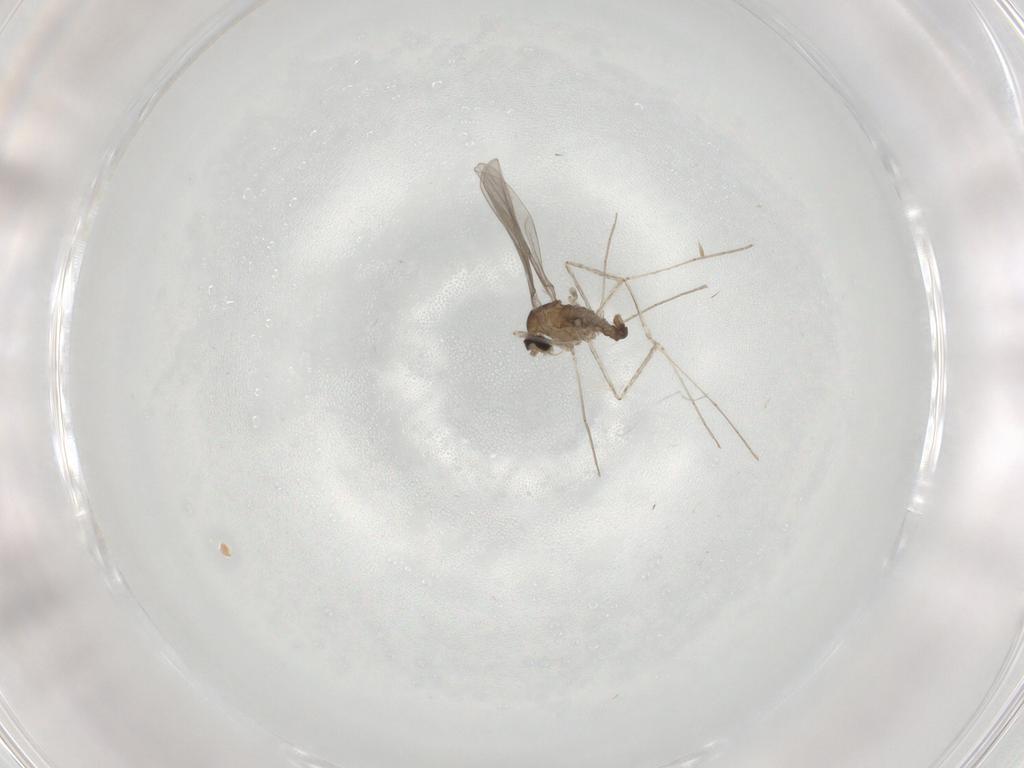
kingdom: Animalia
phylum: Arthropoda
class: Insecta
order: Diptera
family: Cecidomyiidae
